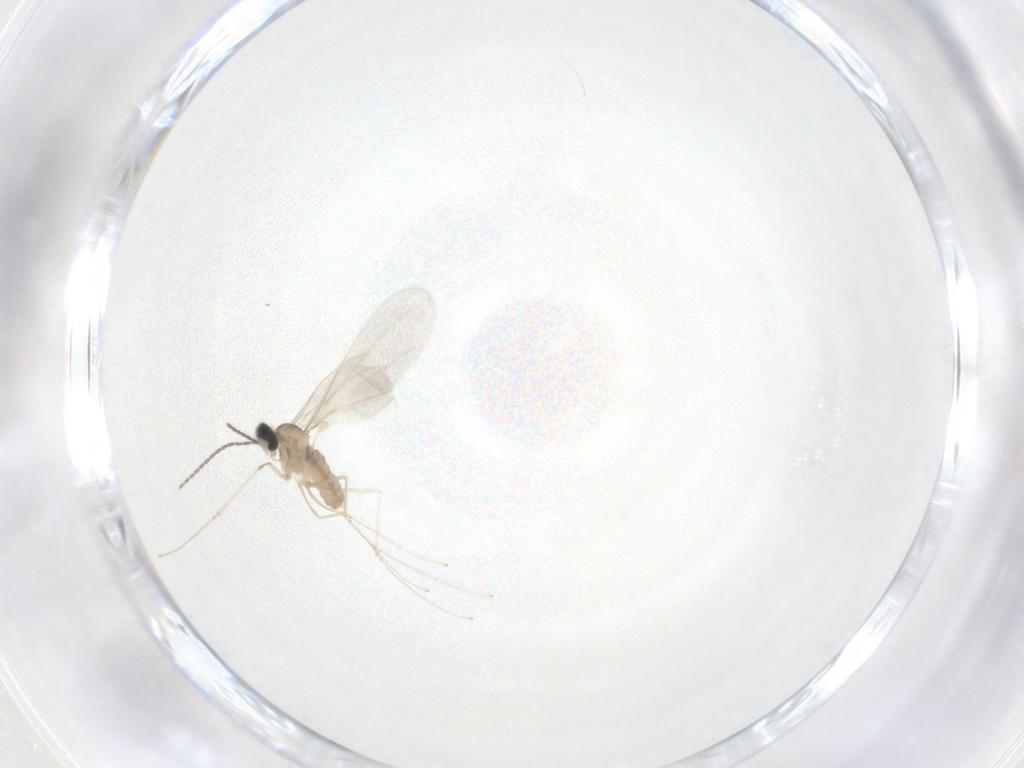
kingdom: Animalia
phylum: Arthropoda
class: Insecta
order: Diptera
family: Cecidomyiidae
